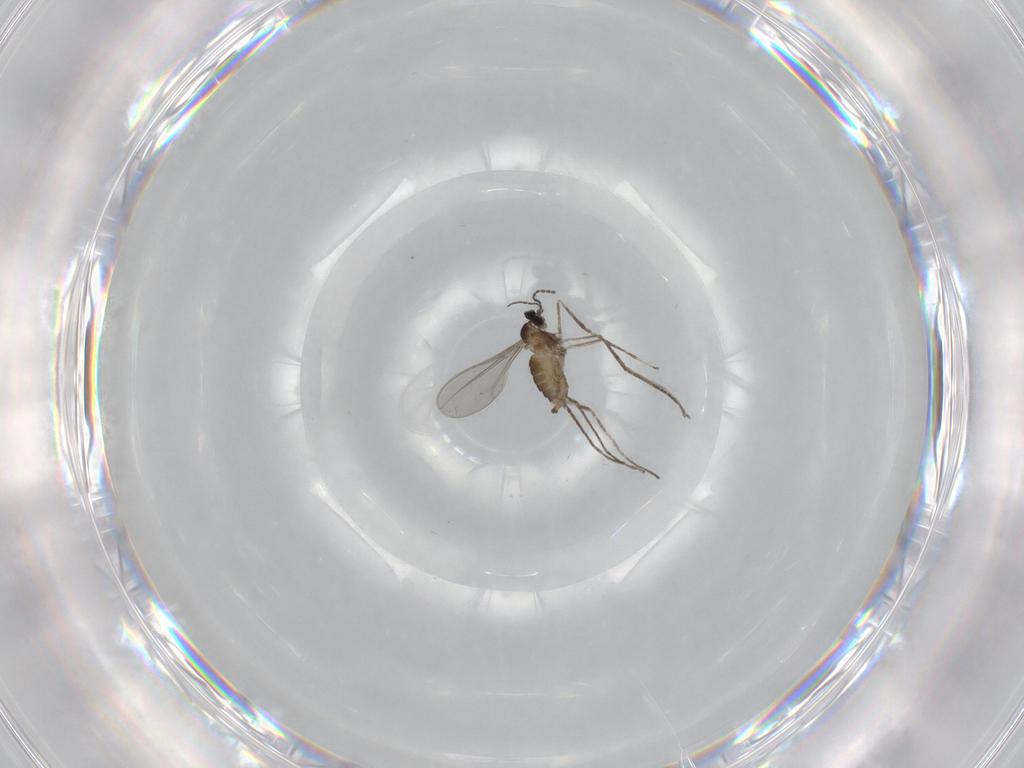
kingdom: Animalia
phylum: Arthropoda
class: Insecta
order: Diptera
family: Cecidomyiidae
